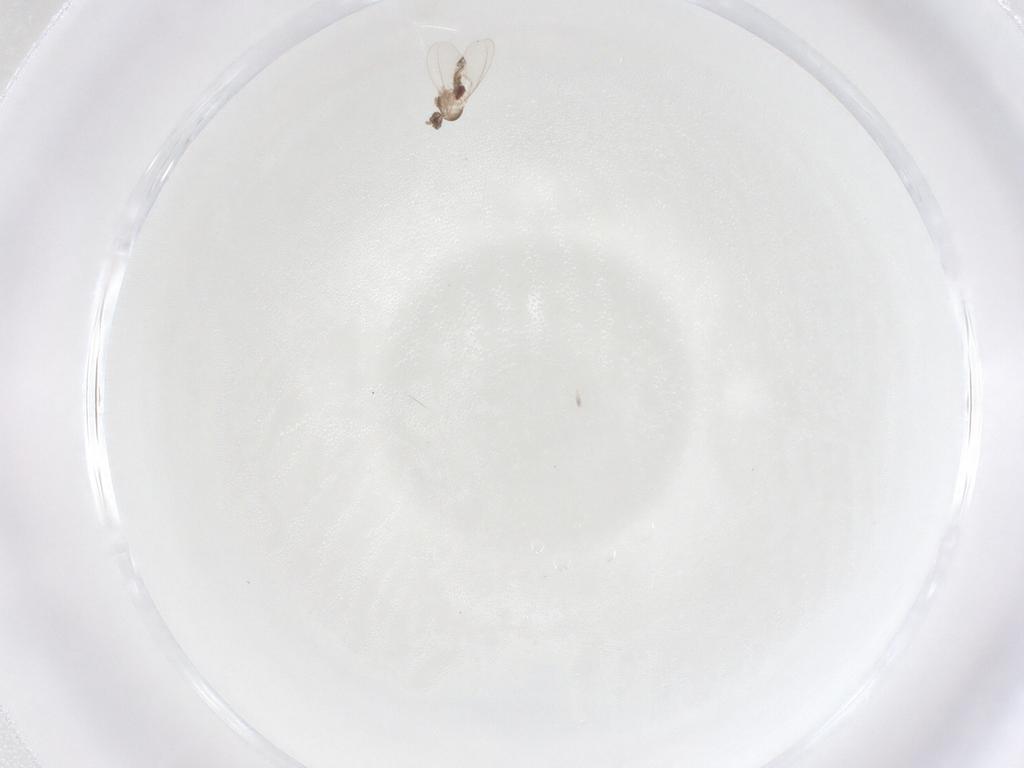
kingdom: Animalia
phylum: Arthropoda
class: Insecta
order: Diptera
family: Phoridae
